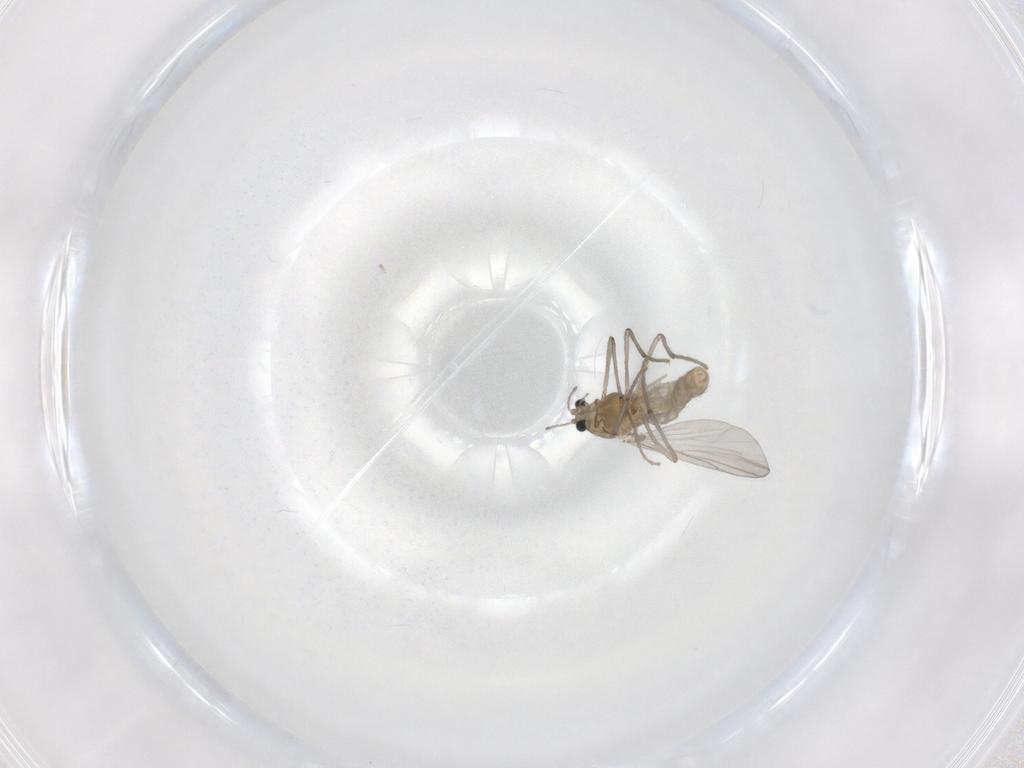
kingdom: Animalia
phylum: Arthropoda
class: Insecta
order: Diptera
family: Chironomidae
